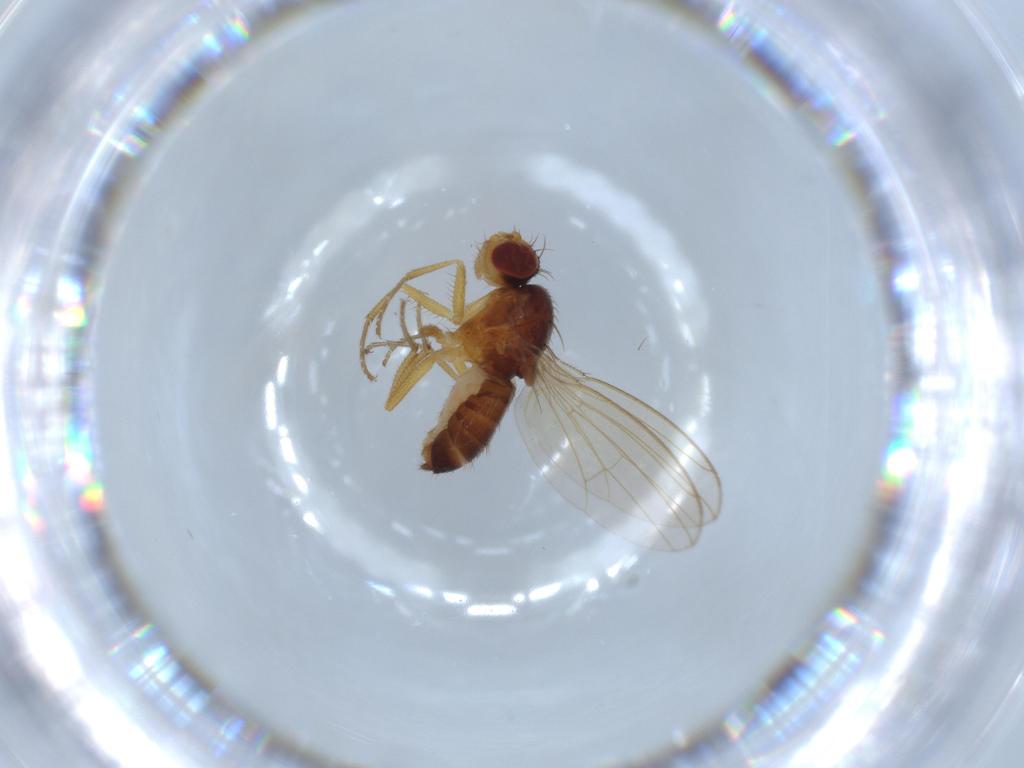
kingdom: Animalia
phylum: Arthropoda
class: Insecta
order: Diptera
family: Drosophilidae
